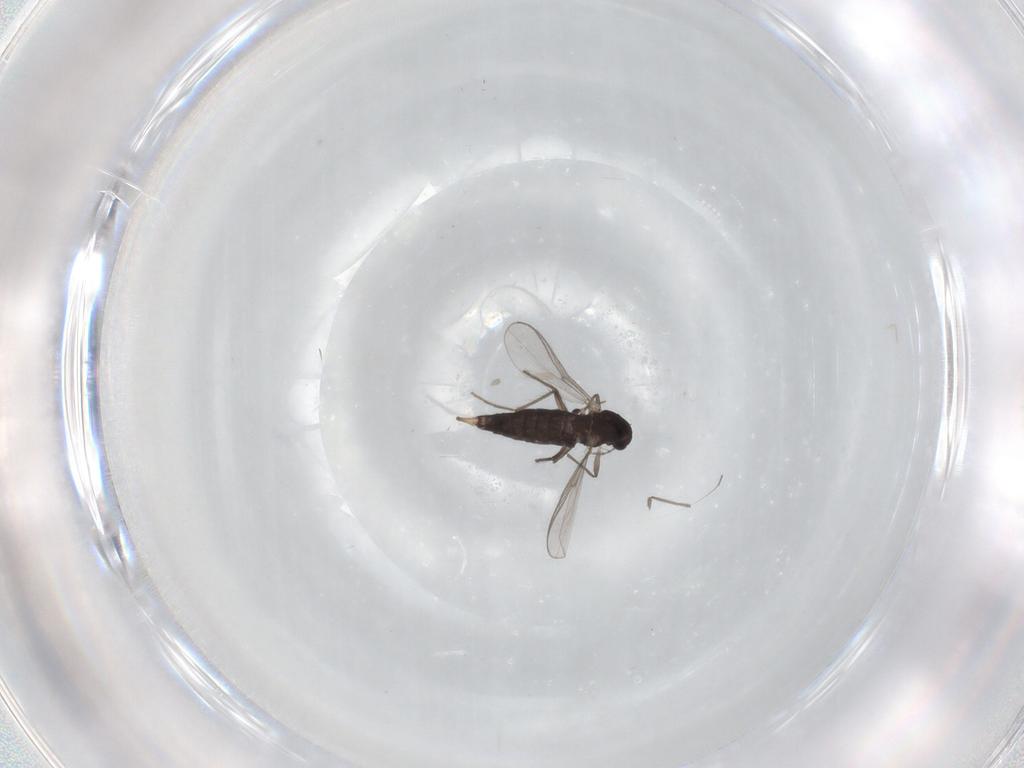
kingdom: Animalia
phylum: Arthropoda
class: Insecta
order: Diptera
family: Chironomidae
